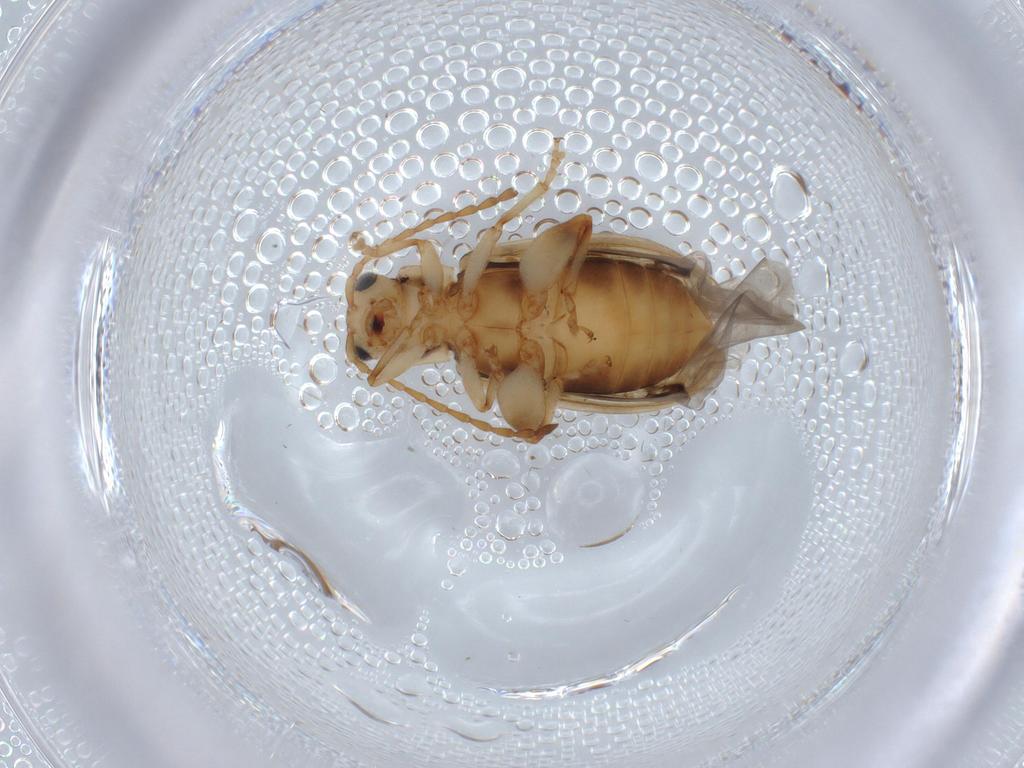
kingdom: Animalia
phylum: Arthropoda
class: Insecta
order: Coleoptera
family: Chrysomelidae
